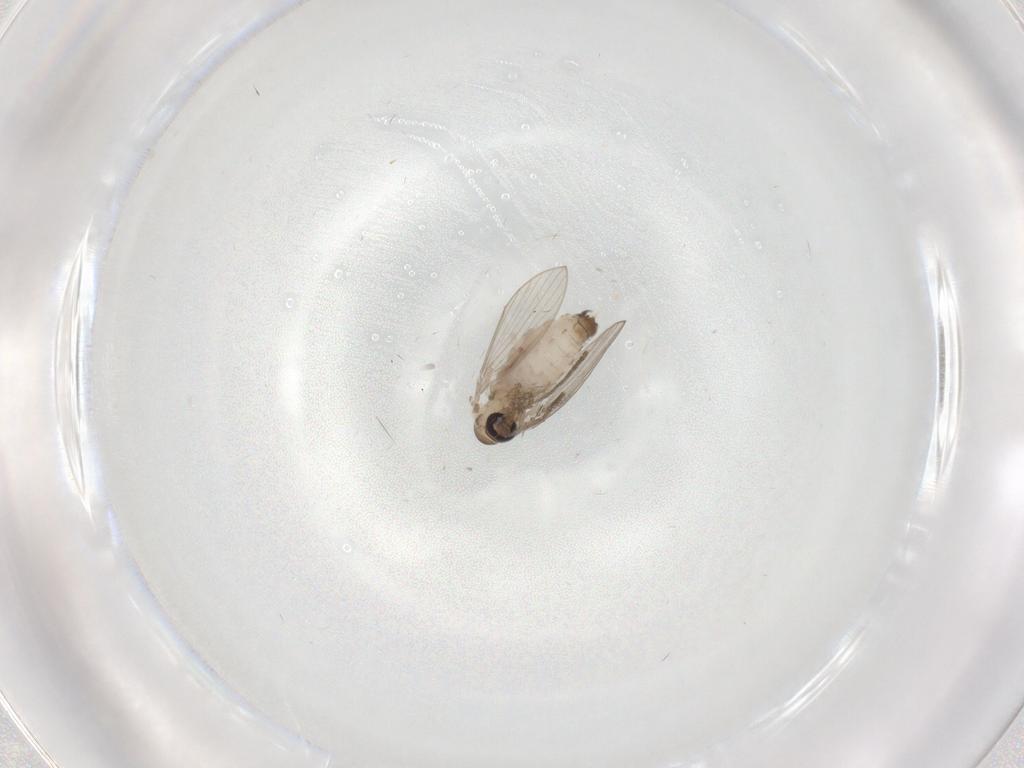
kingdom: Animalia
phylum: Arthropoda
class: Insecta
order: Diptera
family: Psychodidae
